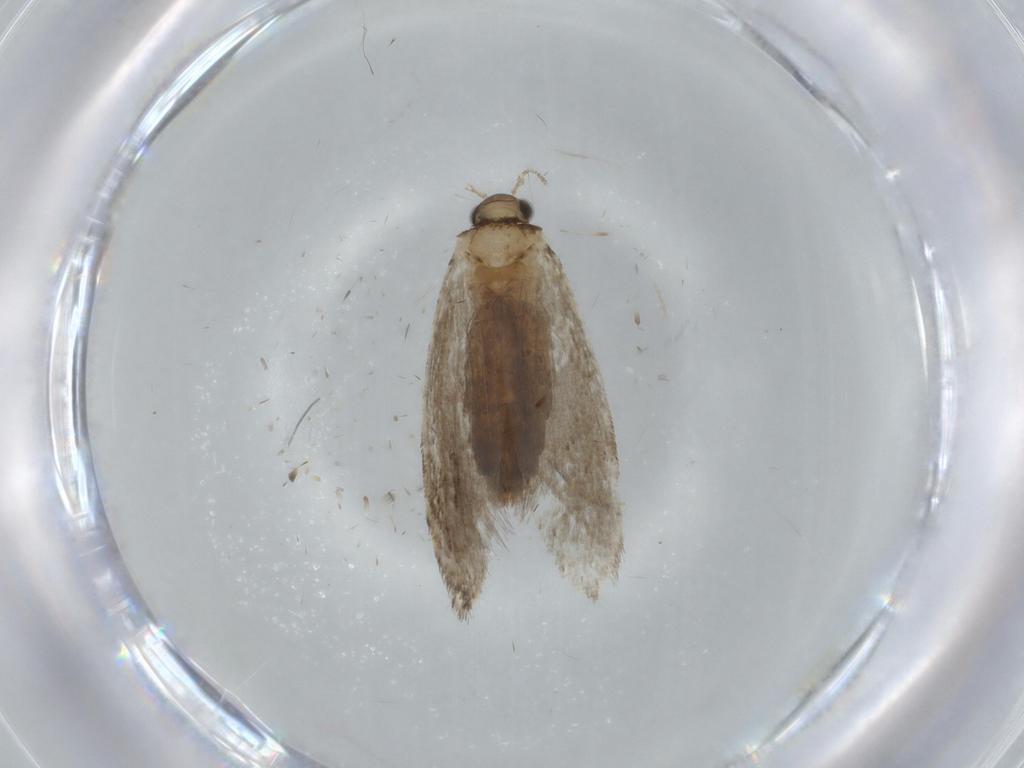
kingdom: Animalia
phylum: Arthropoda
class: Insecta
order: Lepidoptera
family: Tineidae
